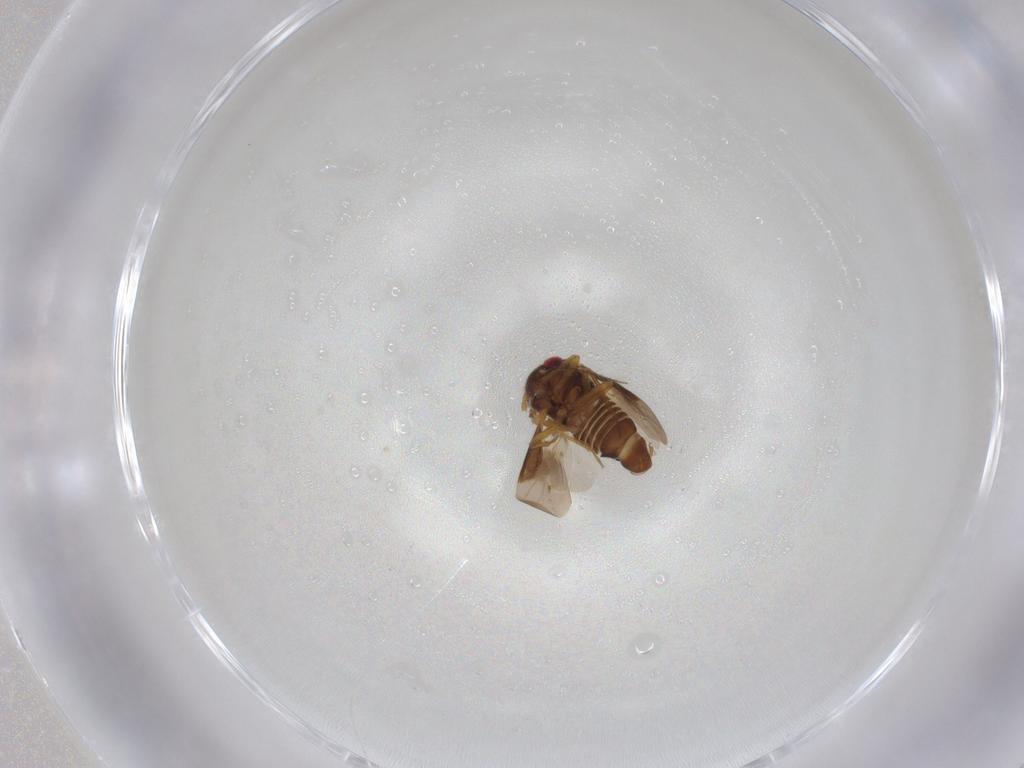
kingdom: Animalia
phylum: Arthropoda
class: Insecta
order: Hemiptera
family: Schizopteridae
